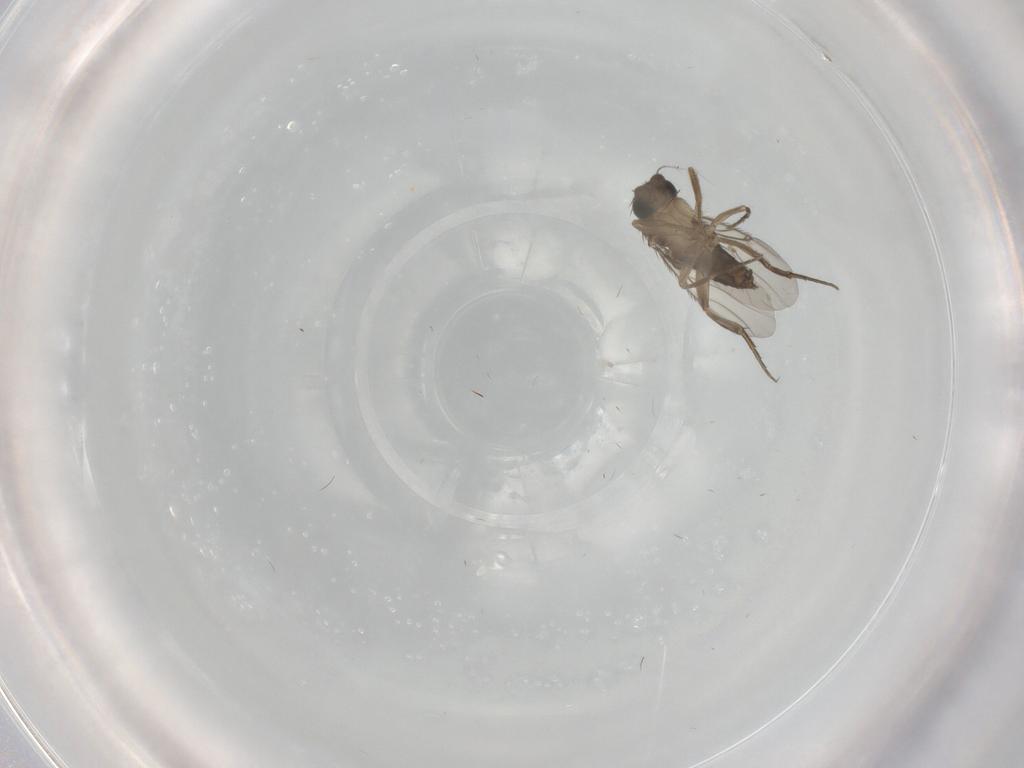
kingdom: Animalia
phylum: Arthropoda
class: Insecta
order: Diptera
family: Phoridae
